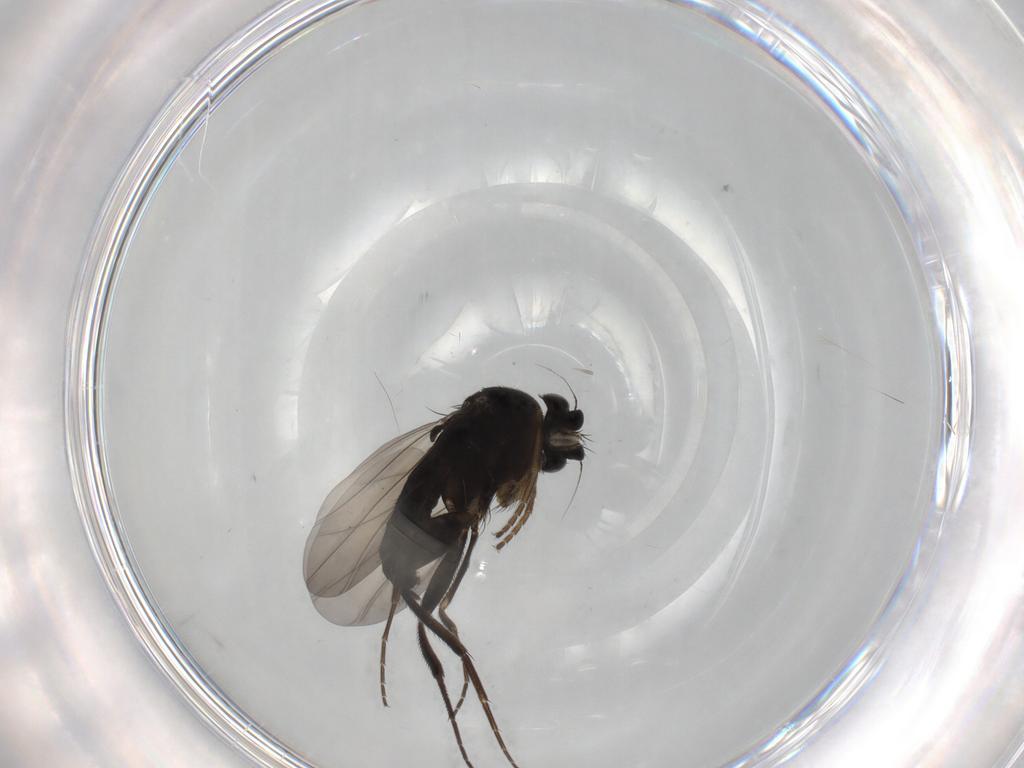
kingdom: Animalia
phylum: Arthropoda
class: Insecta
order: Diptera
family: Phoridae
